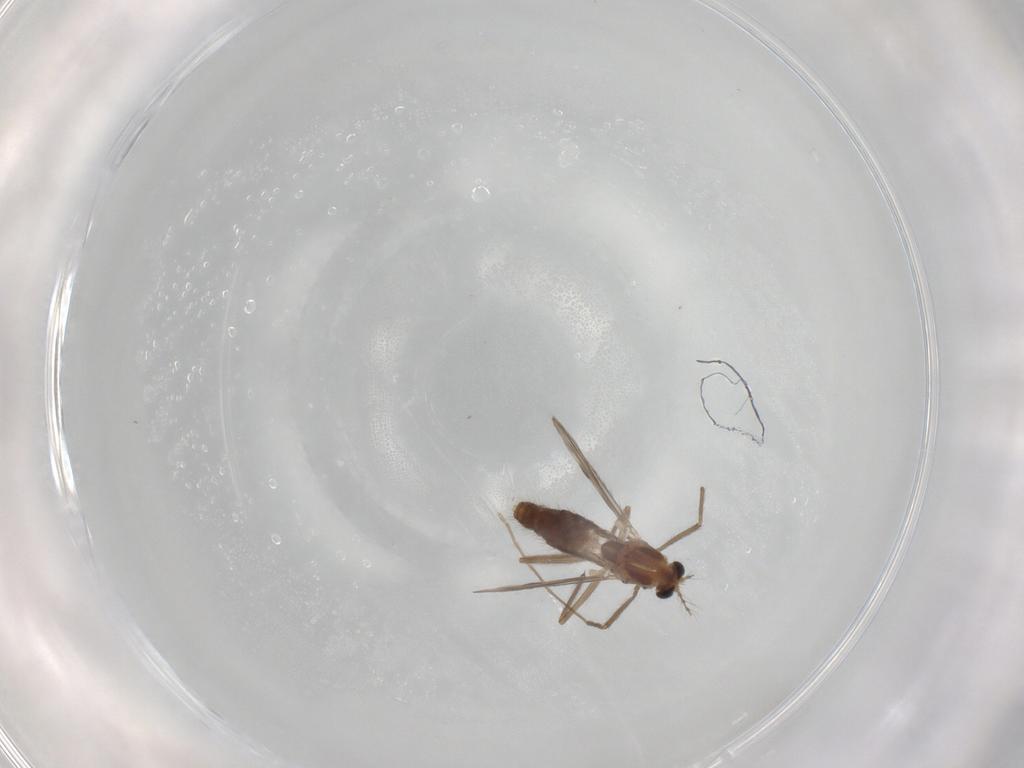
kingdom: Animalia
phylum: Arthropoda
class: Insecta
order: Diptera
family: Chironomidae
